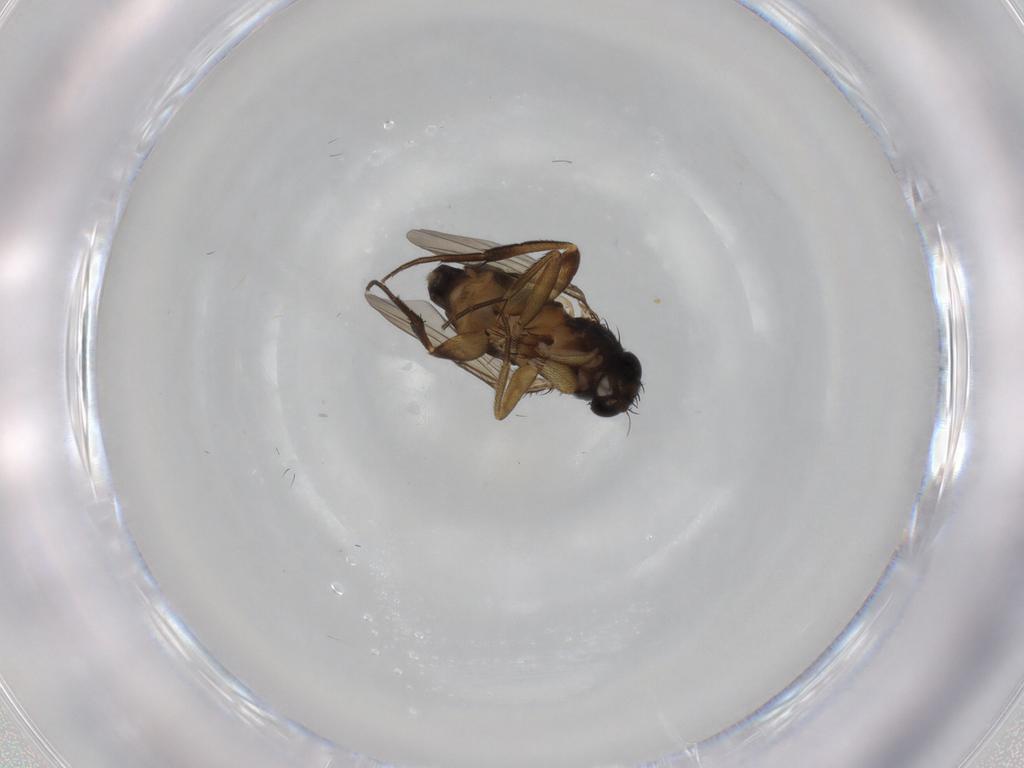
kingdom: Animalia
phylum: Arthropoda
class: Insecta
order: Diptera
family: Phoridae
